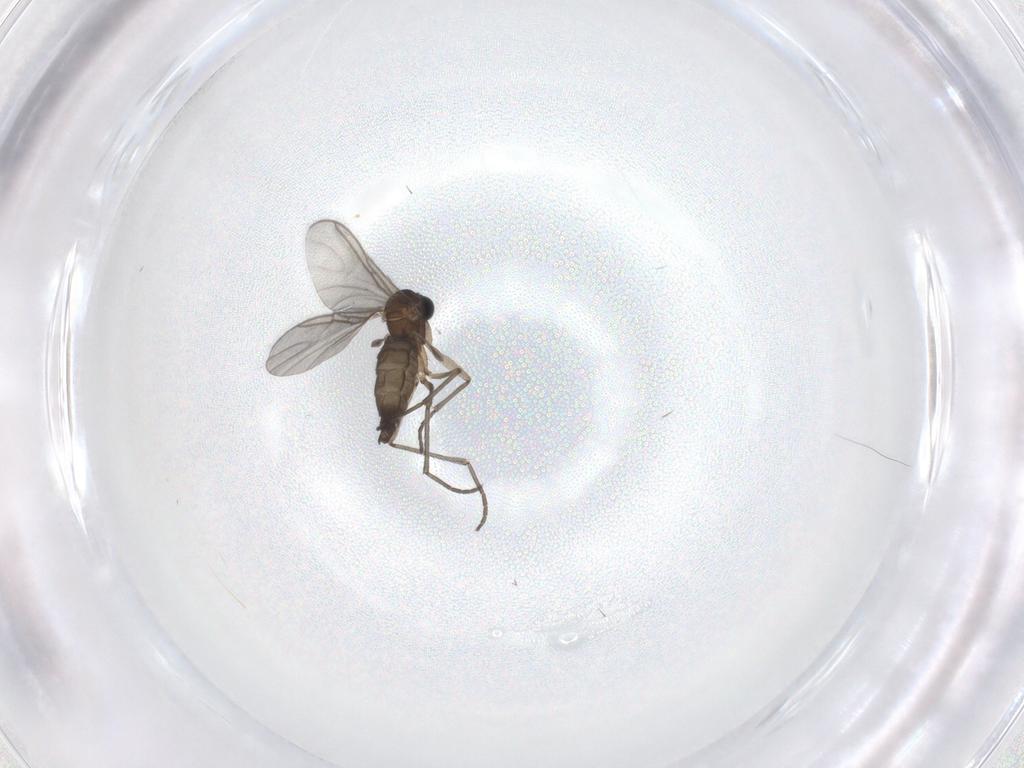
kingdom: Animalia
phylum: Arthropoda
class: Insecta
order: Diptera
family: Sciaridae
